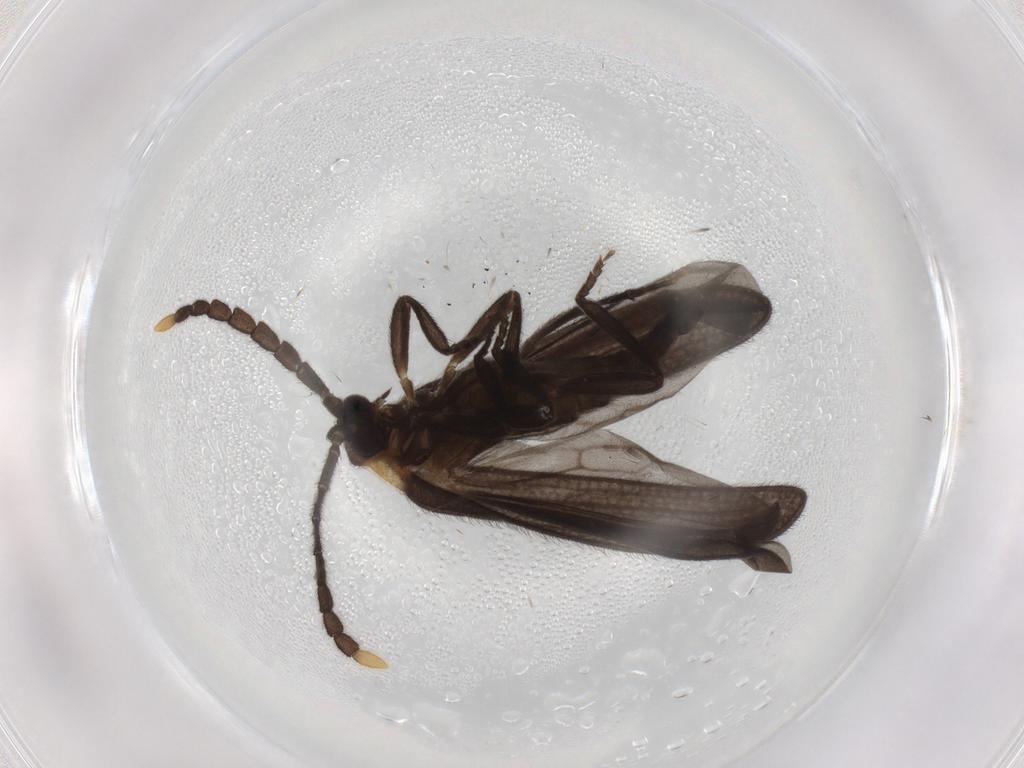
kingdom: Animalia
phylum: Arthropoda
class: Insecta
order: Coleoptera
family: Lycidae
